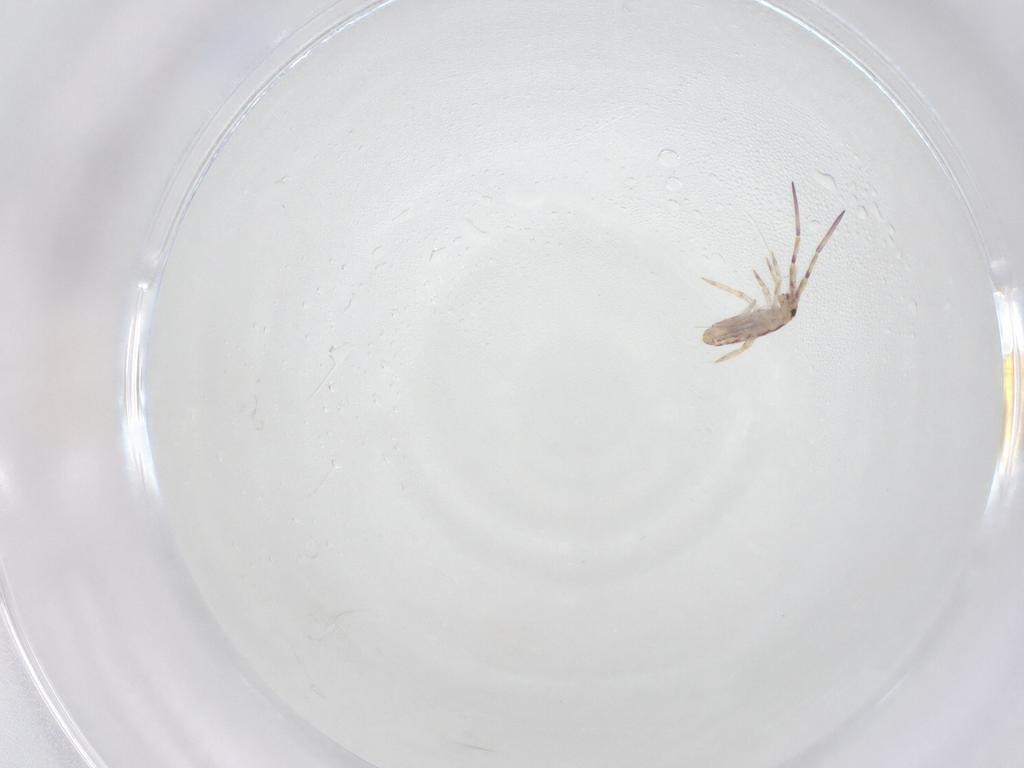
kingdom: Animalia
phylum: Arthropoda
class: Collembola
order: Entomobryomorpha
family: Entomobryidae
